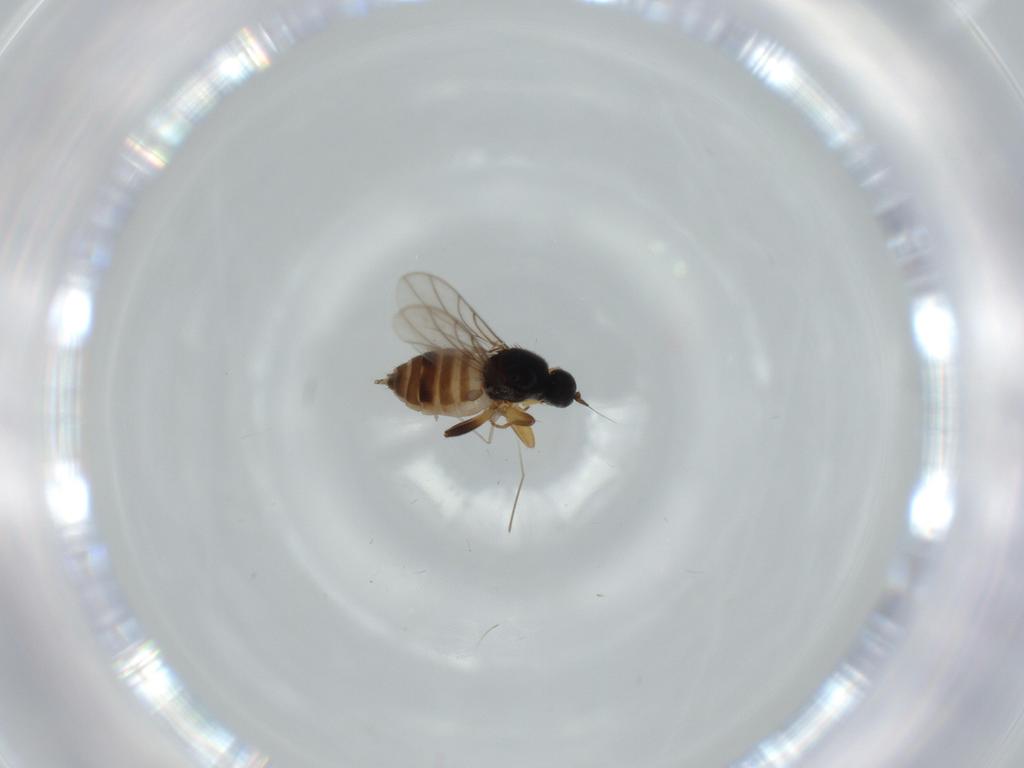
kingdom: Animalia
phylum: Arthropoda
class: Insecta
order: Diptera
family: Hybotidae
